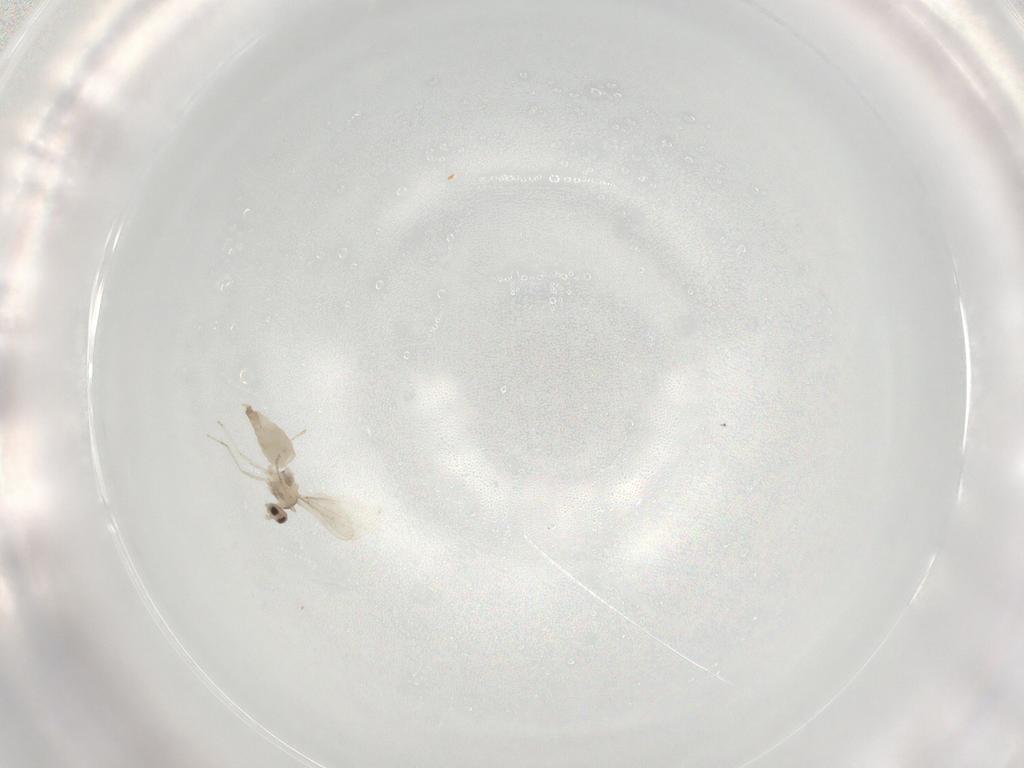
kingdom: Animalia
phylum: Arthropoda
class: Insecta
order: Diptera
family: Cecidomyiidae
